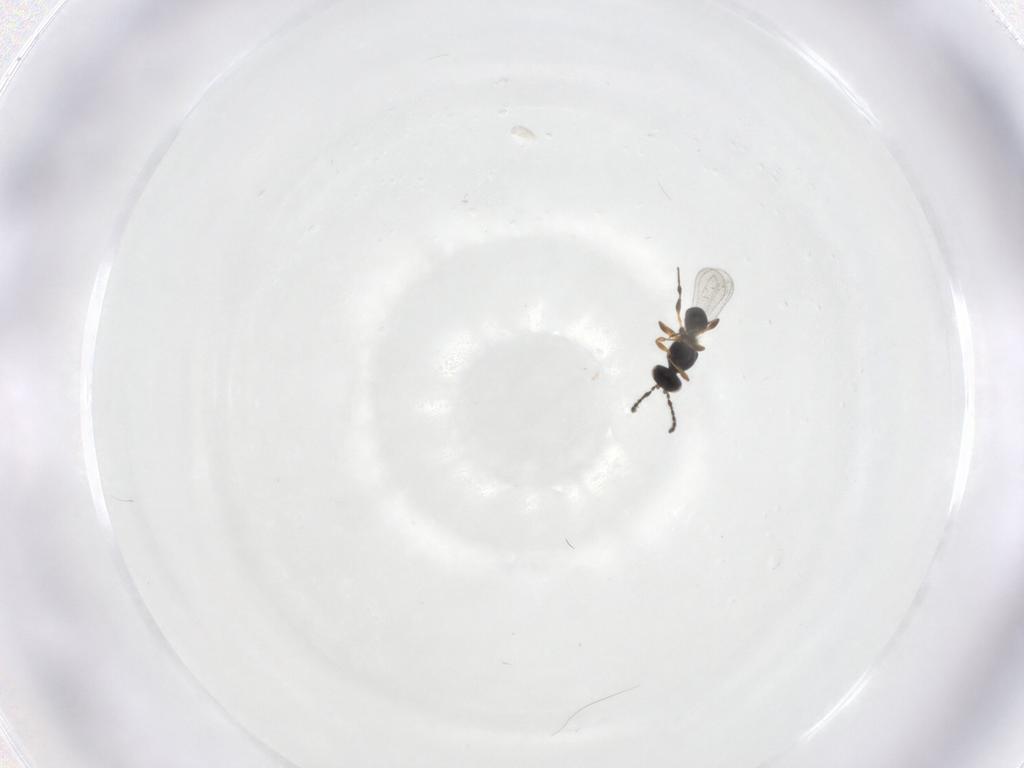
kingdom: Animalia
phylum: Arthropoda
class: Insecta
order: Hymenoptera
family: Platygastridae
